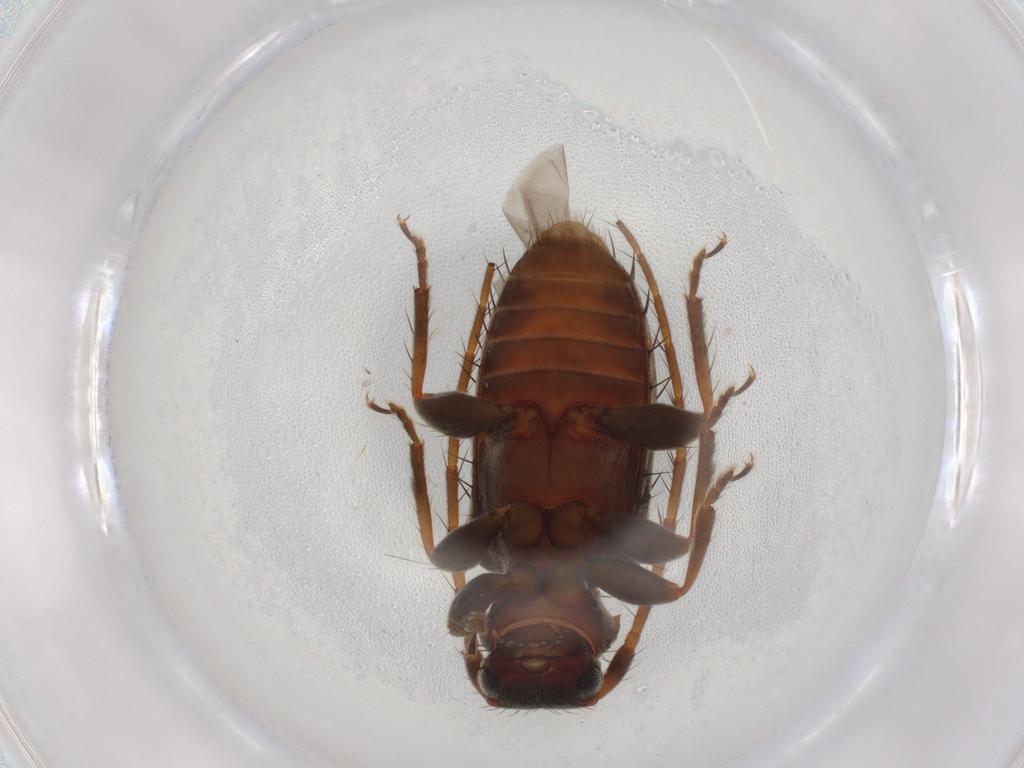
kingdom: Animalia
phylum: Arthropoda
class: Insecta
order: Coleoptera
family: Cerambycidae
